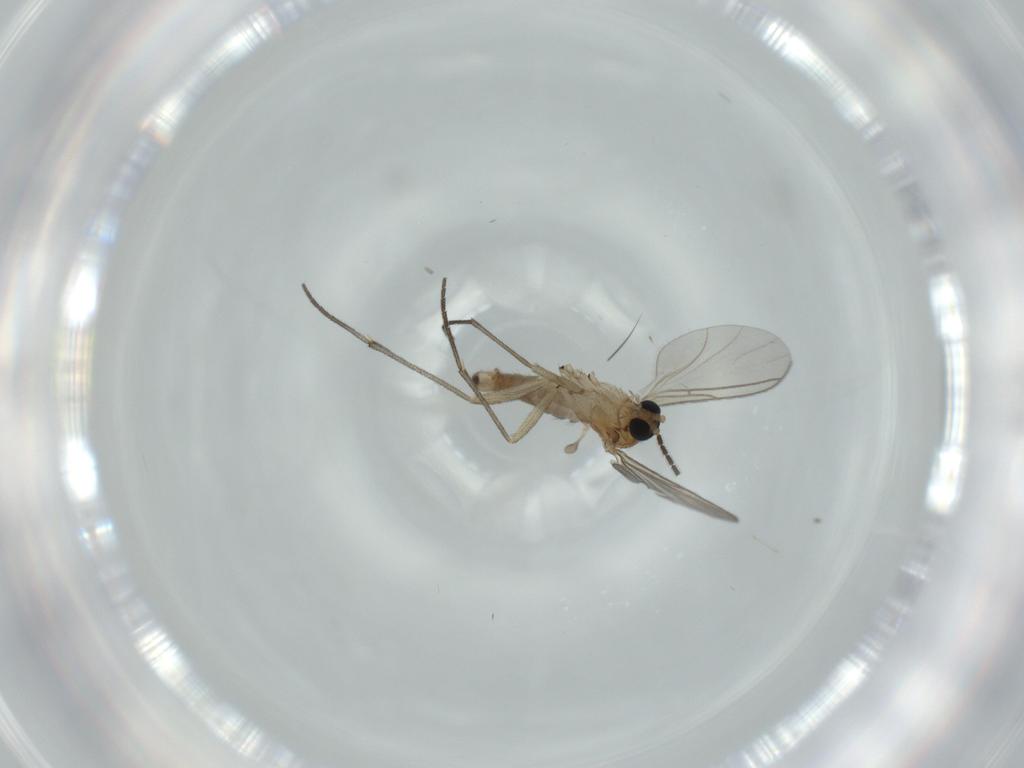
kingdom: Animalia
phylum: Arthropoda
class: Insecta
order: Diptera
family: Sciaridae
